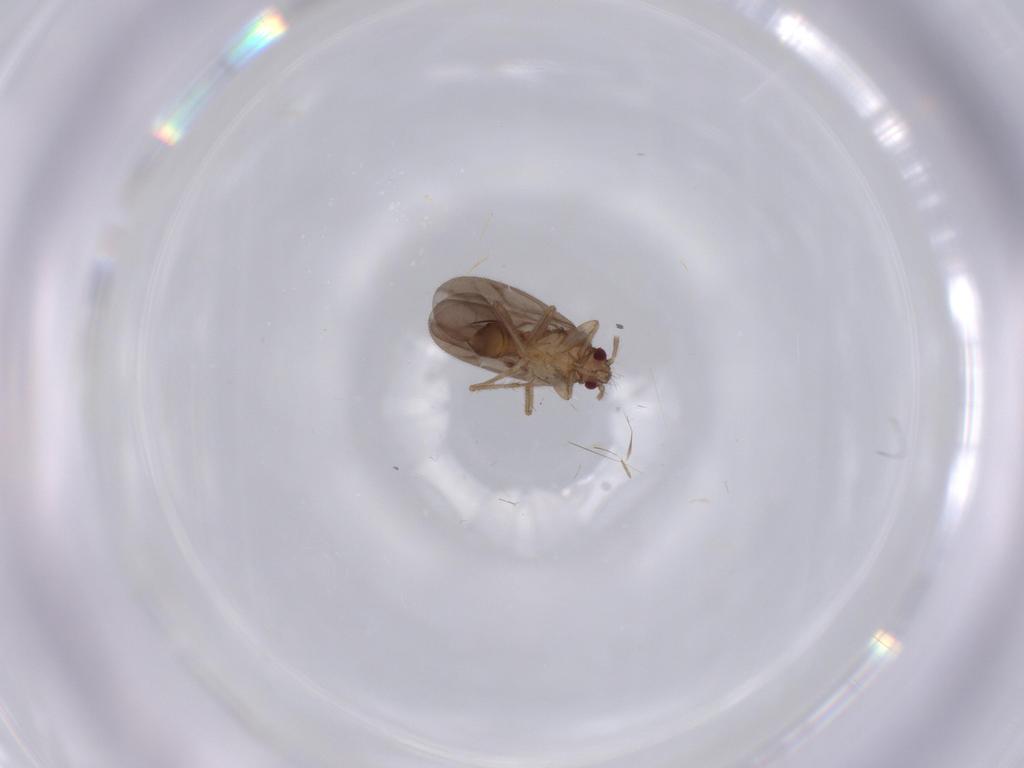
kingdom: Animalia
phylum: Arthropoda
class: Insecta
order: Hemiptera
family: Ceratocombidae
